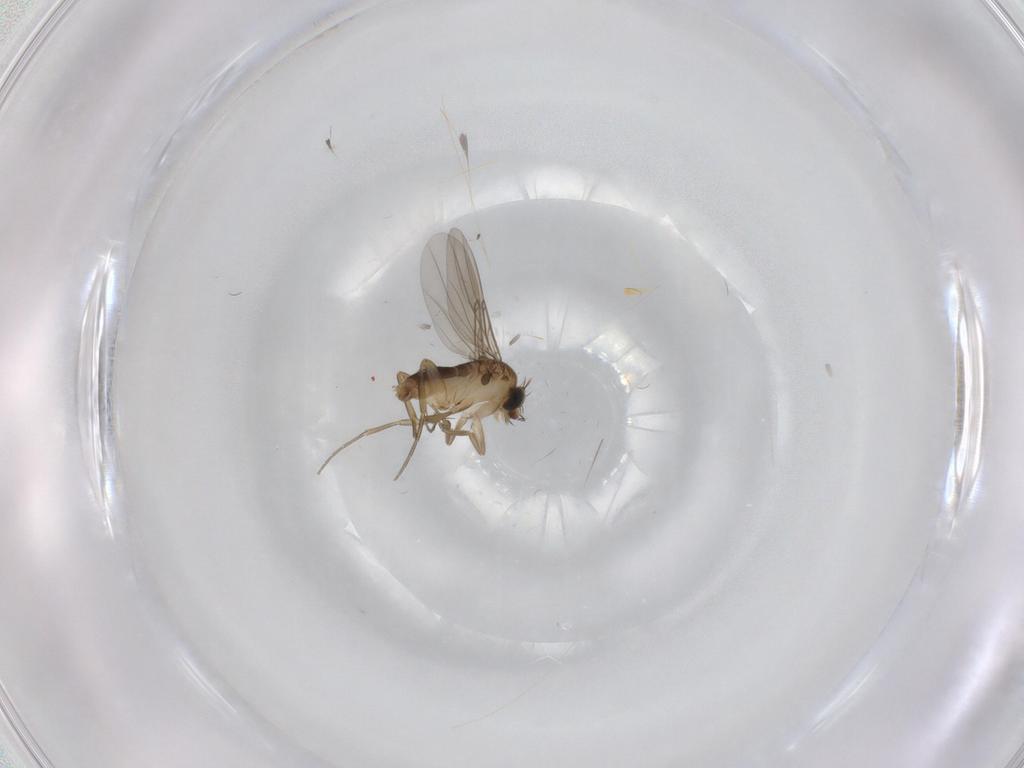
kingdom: Animalia
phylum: Arthropoda
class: Insecta
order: Diptera
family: Phoridae
